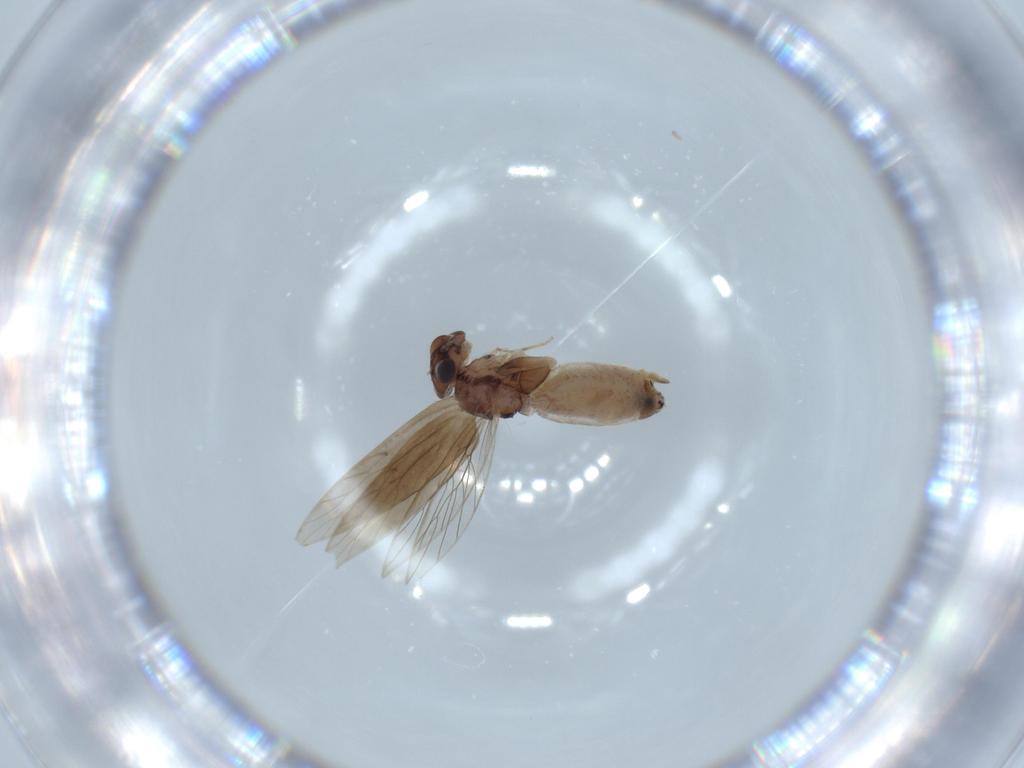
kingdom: Animalia
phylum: Arthropoda
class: Insecta
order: Psocodea
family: Lepidopsocidae
